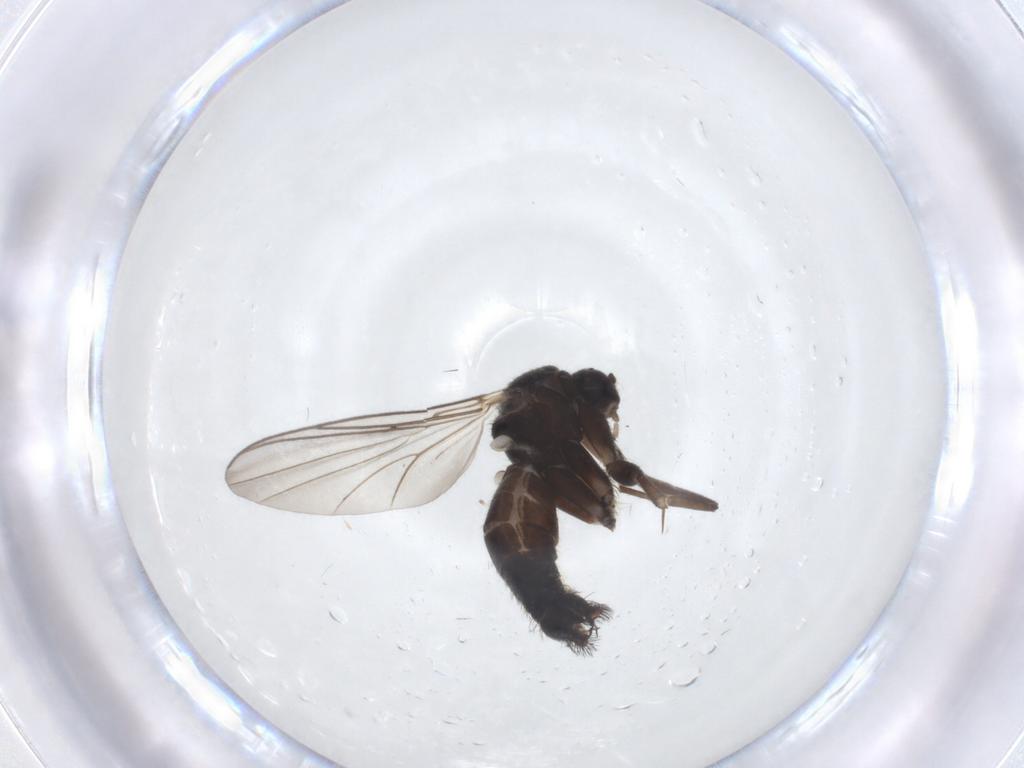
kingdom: Animalia
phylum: Arthropoda
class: Insecta
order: Diptera
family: Mycetophilidae
